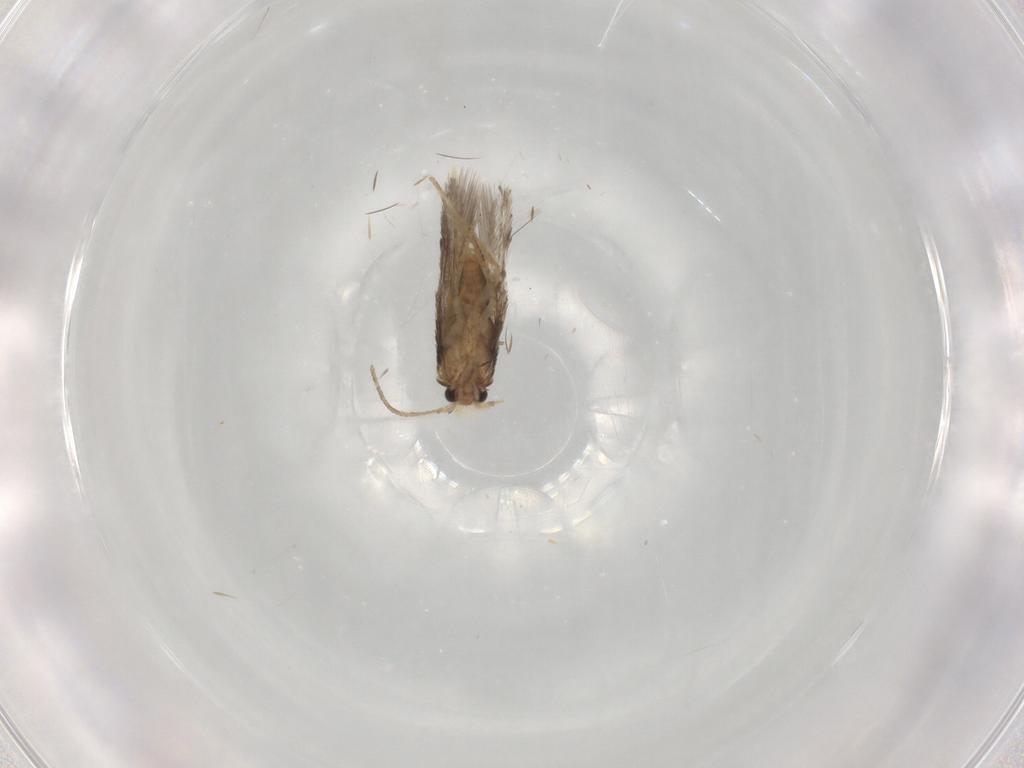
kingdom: Animalia
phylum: Arthropoda
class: Insecta
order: Lepidoptera
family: Nepticulidae
